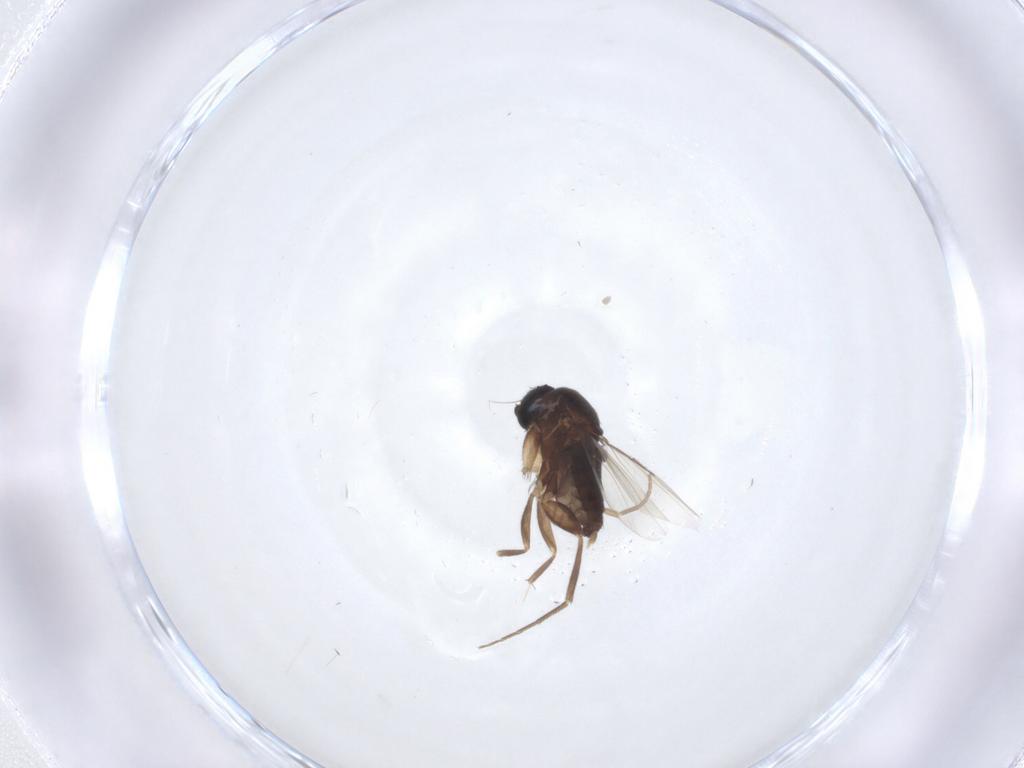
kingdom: Animalia
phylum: Arthropoda
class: Insecta
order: Diptera
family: Phoridae
